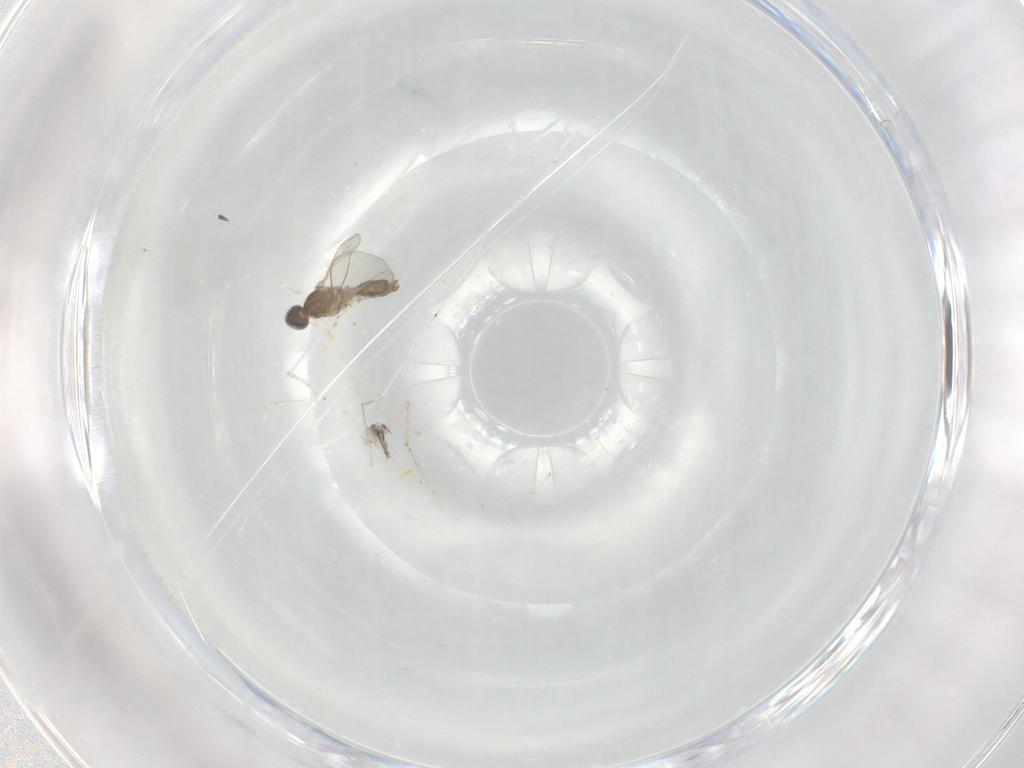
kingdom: Animalia
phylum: Arthropoda
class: Insecta
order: Diptera
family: Cecidomyiidae
